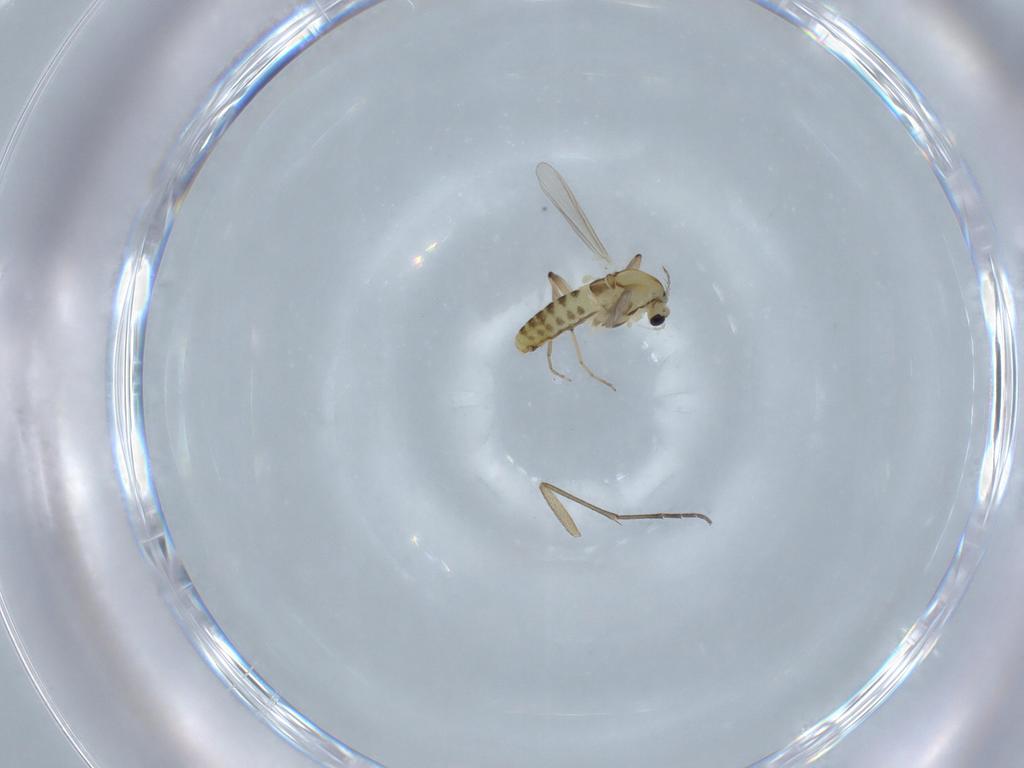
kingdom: Animalia
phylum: Arthropoda
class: Insecta
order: Diptera
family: Chironomidae
